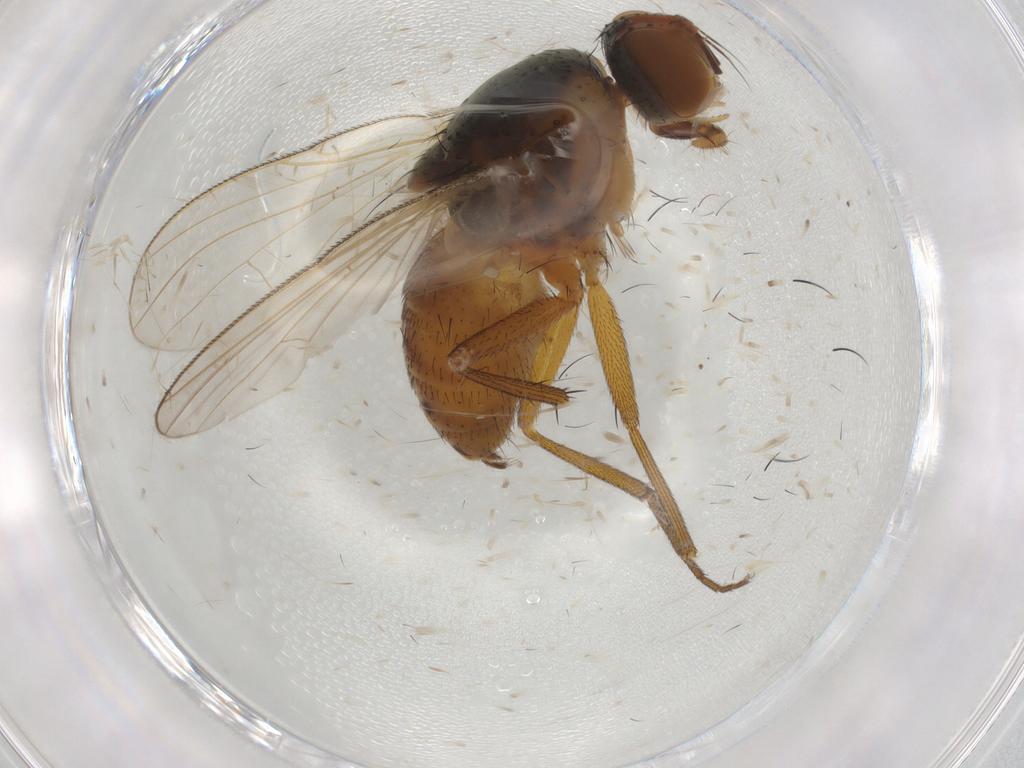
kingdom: Animalia
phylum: Arthropoda
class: Insecta
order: Diptera
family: Muscidae
